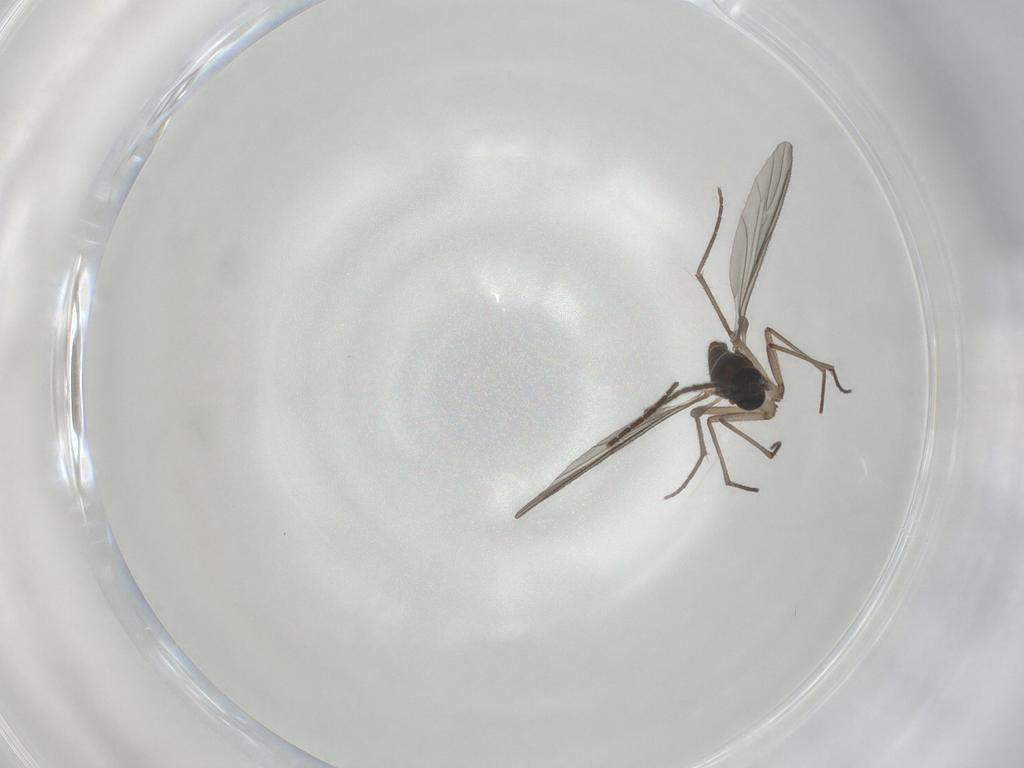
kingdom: Animalia
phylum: Arthropoda
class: Insecta
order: Diptera
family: Sciaridae
